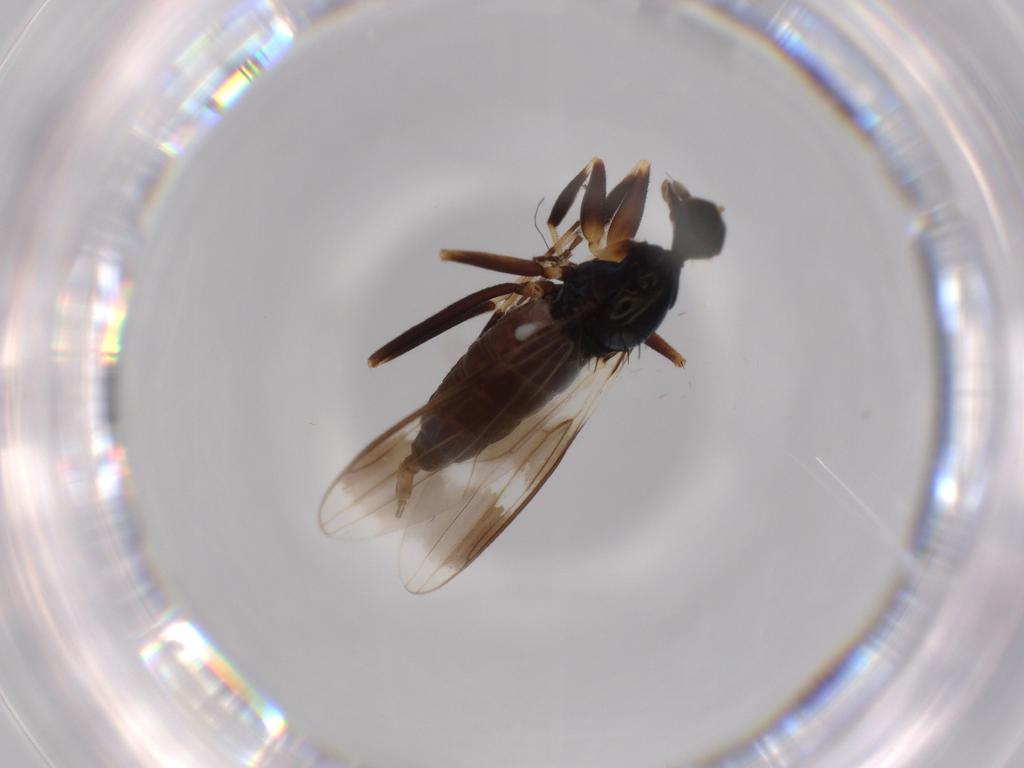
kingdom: Animalia
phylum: Arthropoda
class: Insecta
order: Diptera
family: Hybotidae
